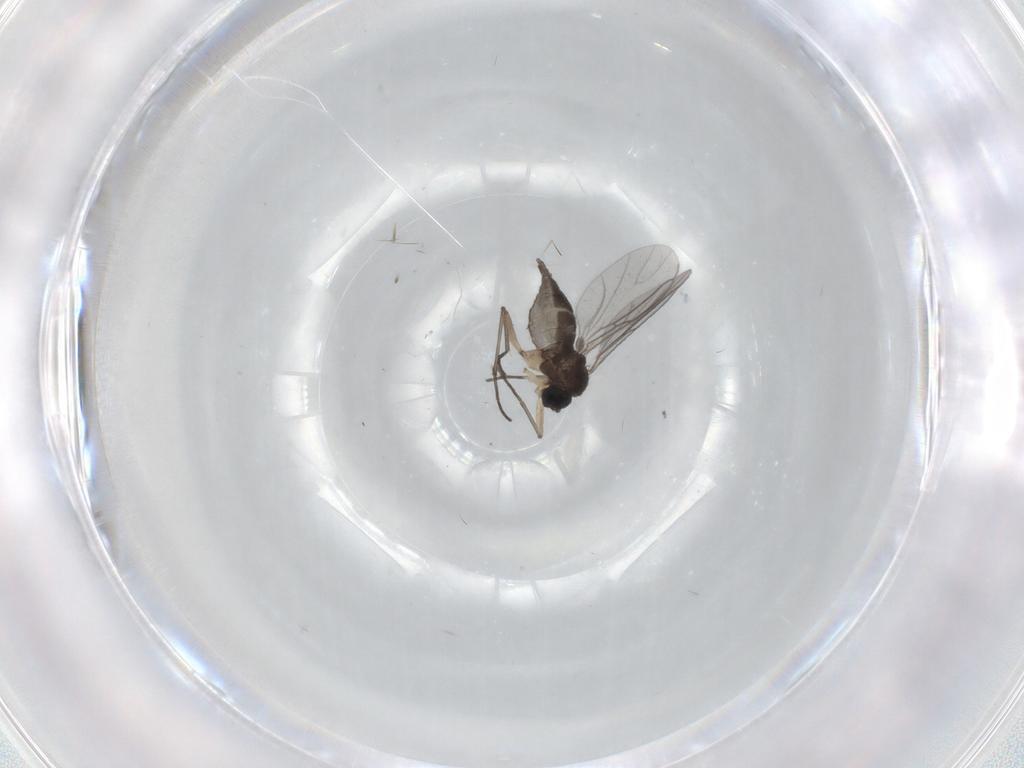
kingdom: Animalia
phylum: Arthropoda
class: Insecta
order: Diptera
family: Sciaridae
